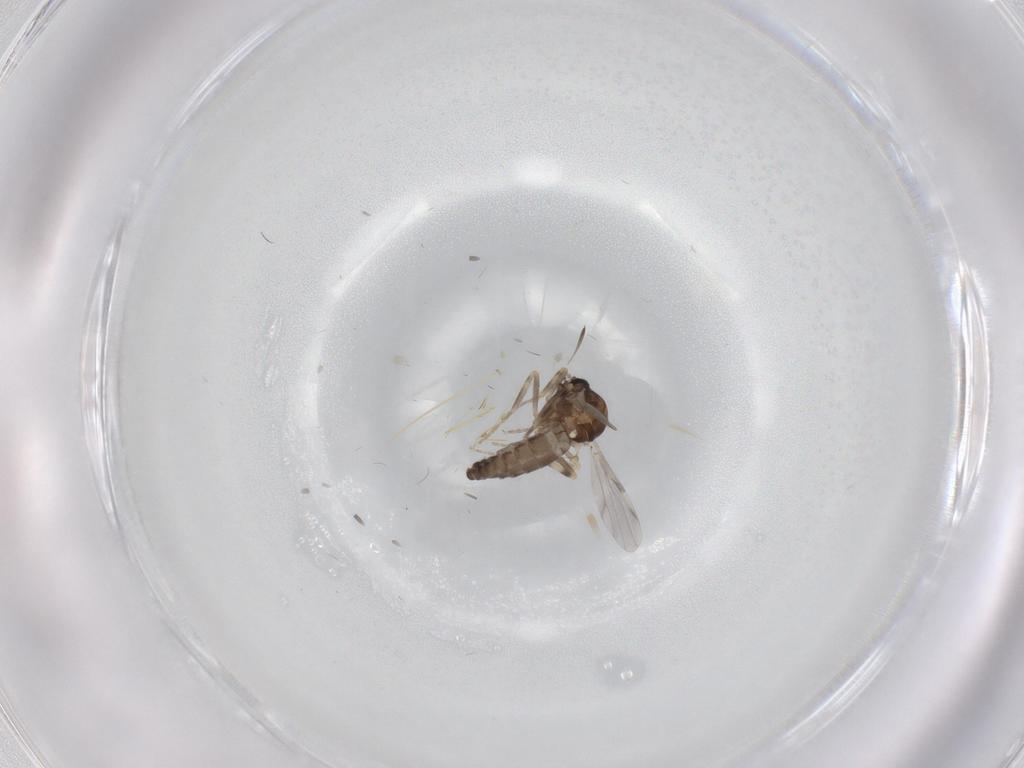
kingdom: Animalia
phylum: Arthropoda
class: Insecta
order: Diptera
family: Ceratopogonidae
